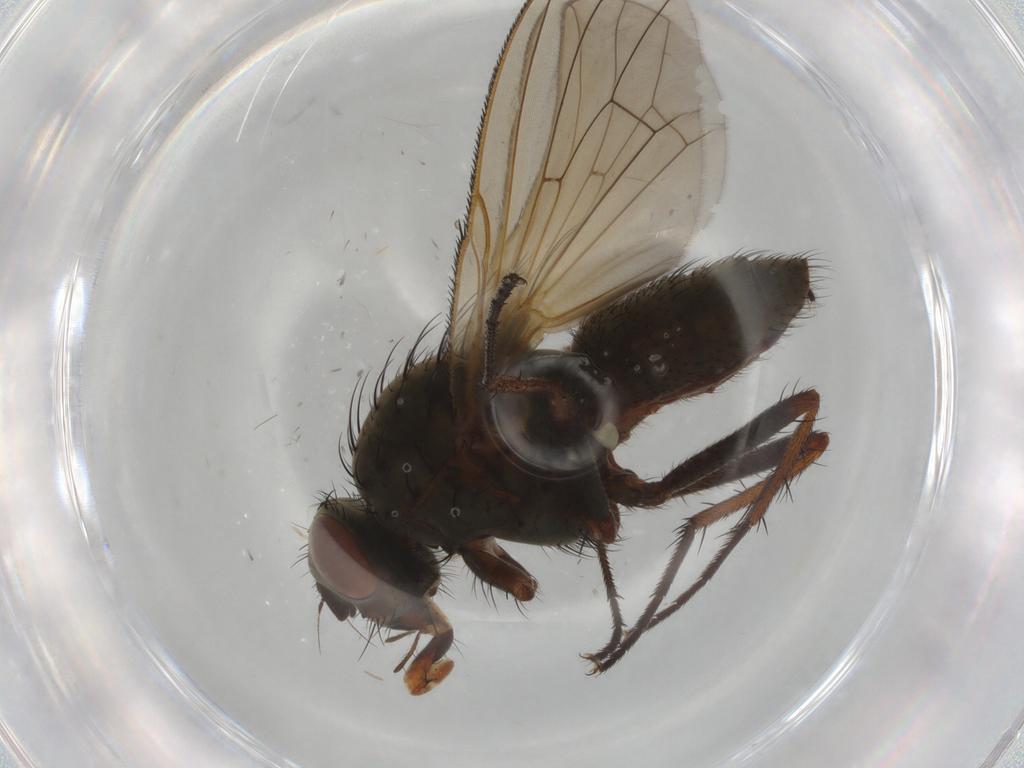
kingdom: Animalia
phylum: Arthropoda
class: Insecta
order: Diptera
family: Anthomyiidae
